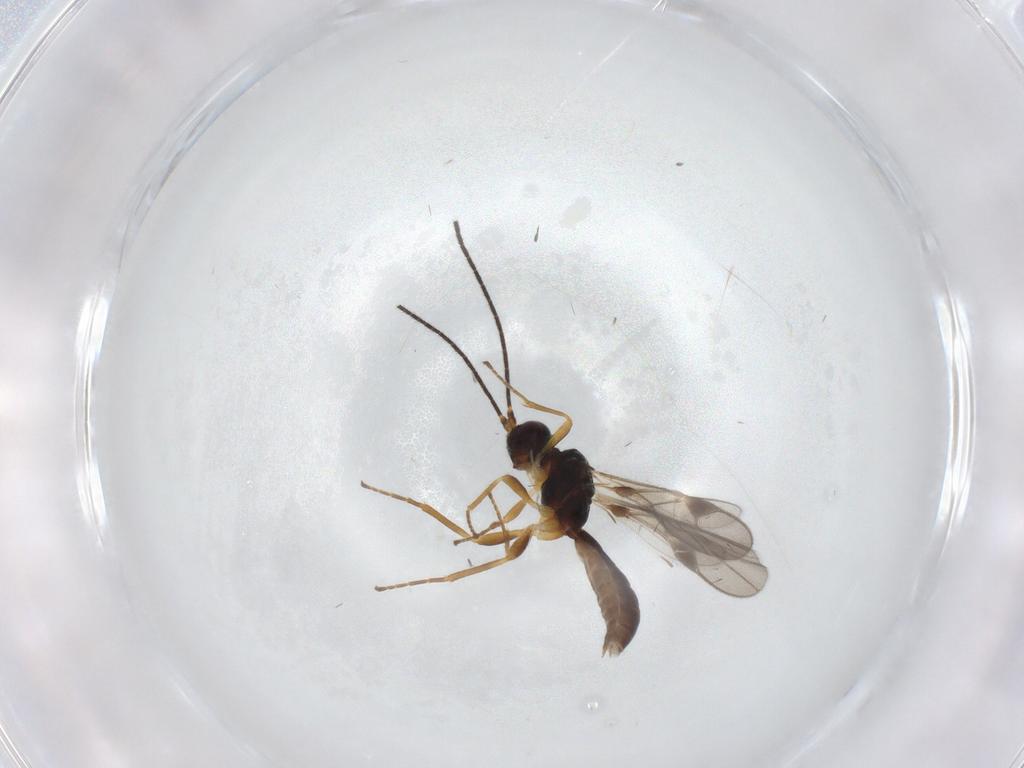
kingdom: Animalia
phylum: Arthropoda
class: Insecta
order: Hymenoptera
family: Braconidae
